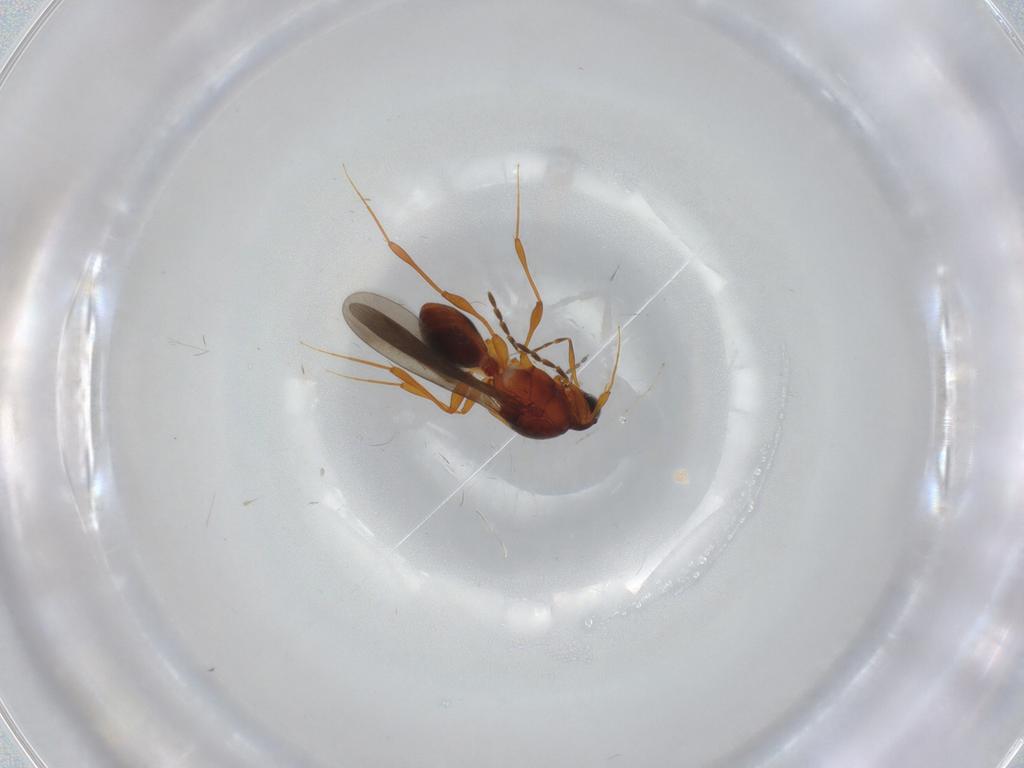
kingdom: Animalia
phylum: Arthropoda
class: Insecta
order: Hymenoptera
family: Platygastridae
